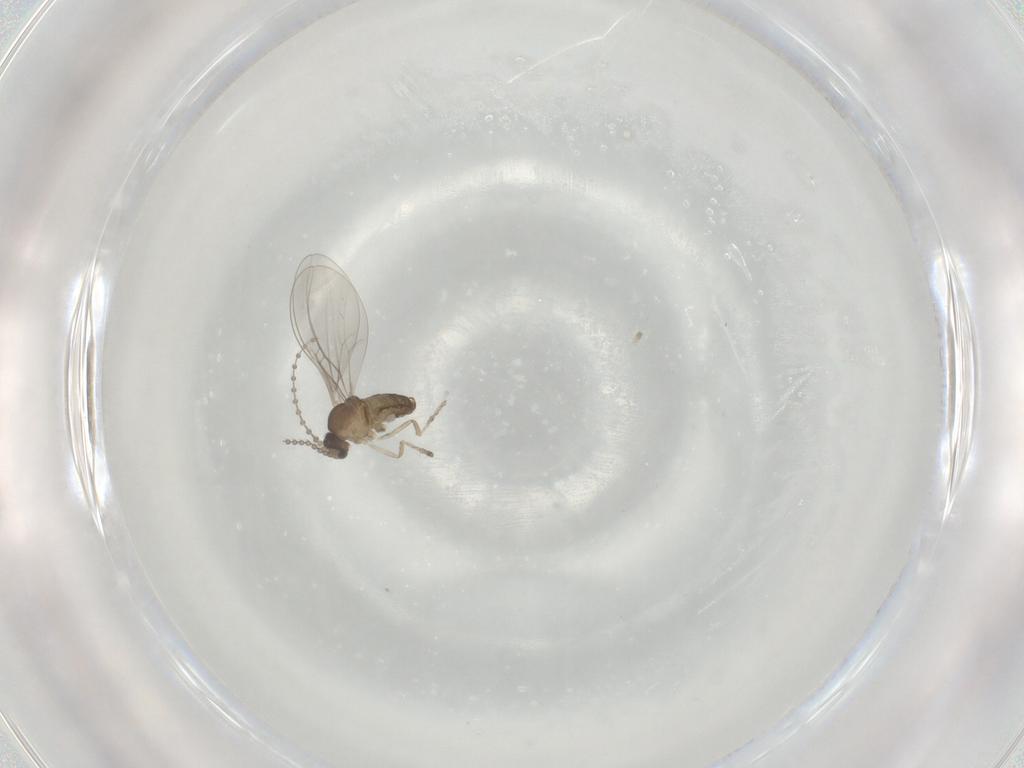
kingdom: Animalia
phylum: Arthropoda
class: Insecta
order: Diptera
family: Cecidomyiidae
